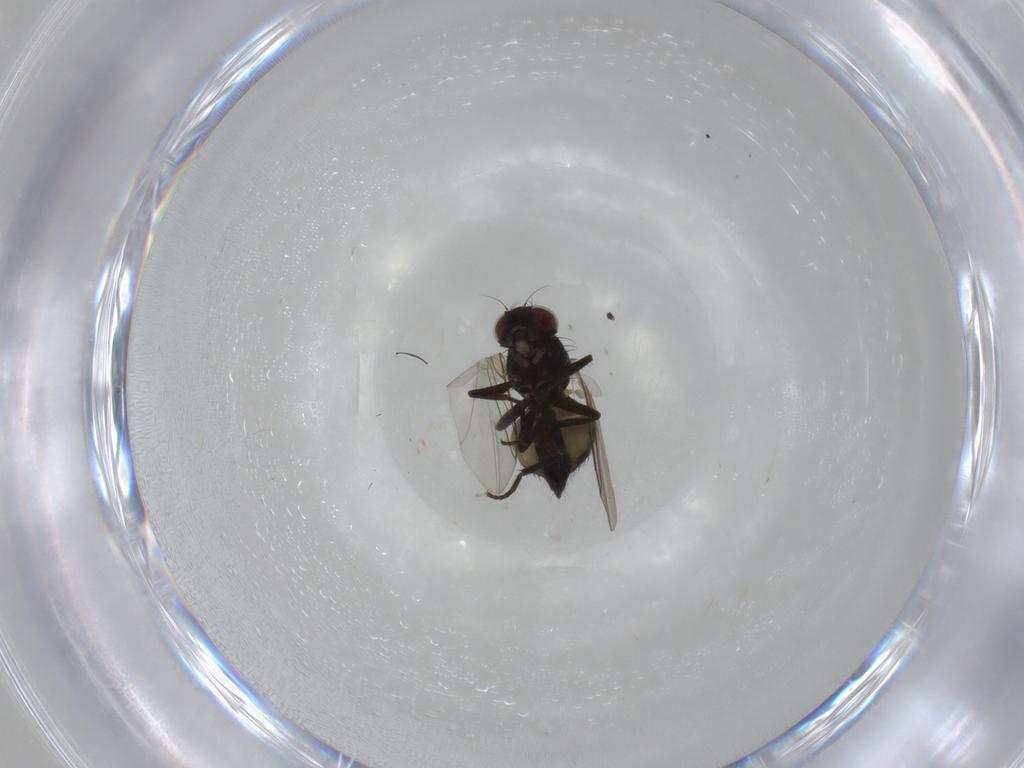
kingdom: Animalia
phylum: Arthropoda
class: Insecta
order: Diptera
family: Cecidomyiidae
